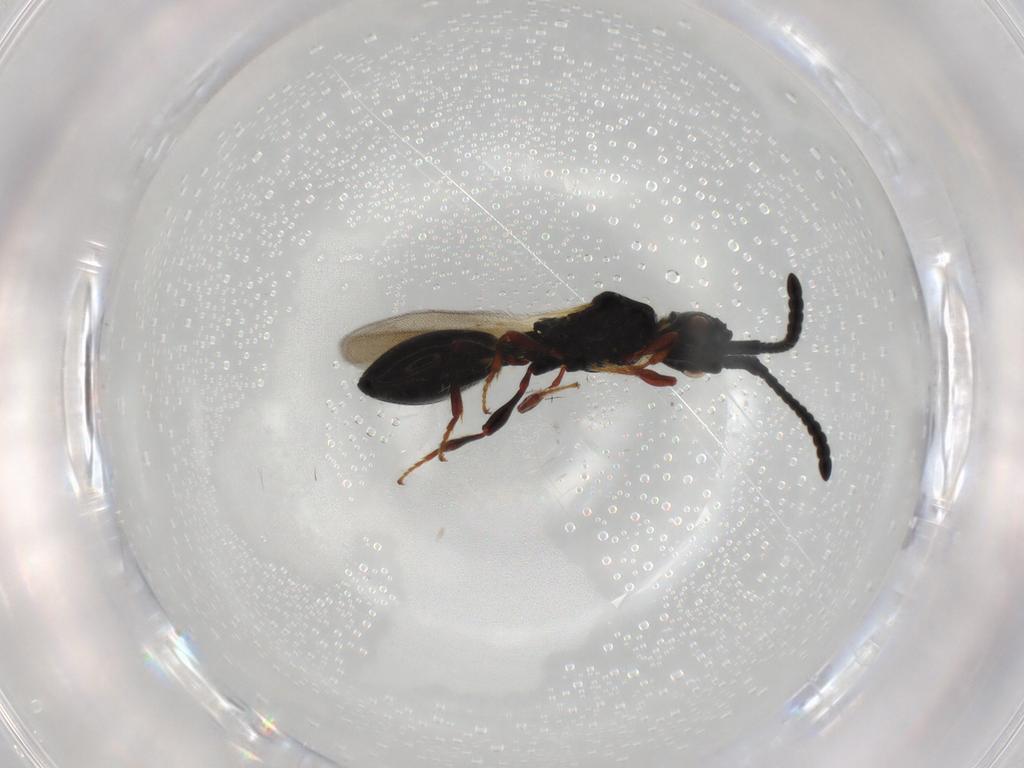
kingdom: Animalia
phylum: Arthropoda
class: Insecta
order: Hymenoptera
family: Diapriidae
